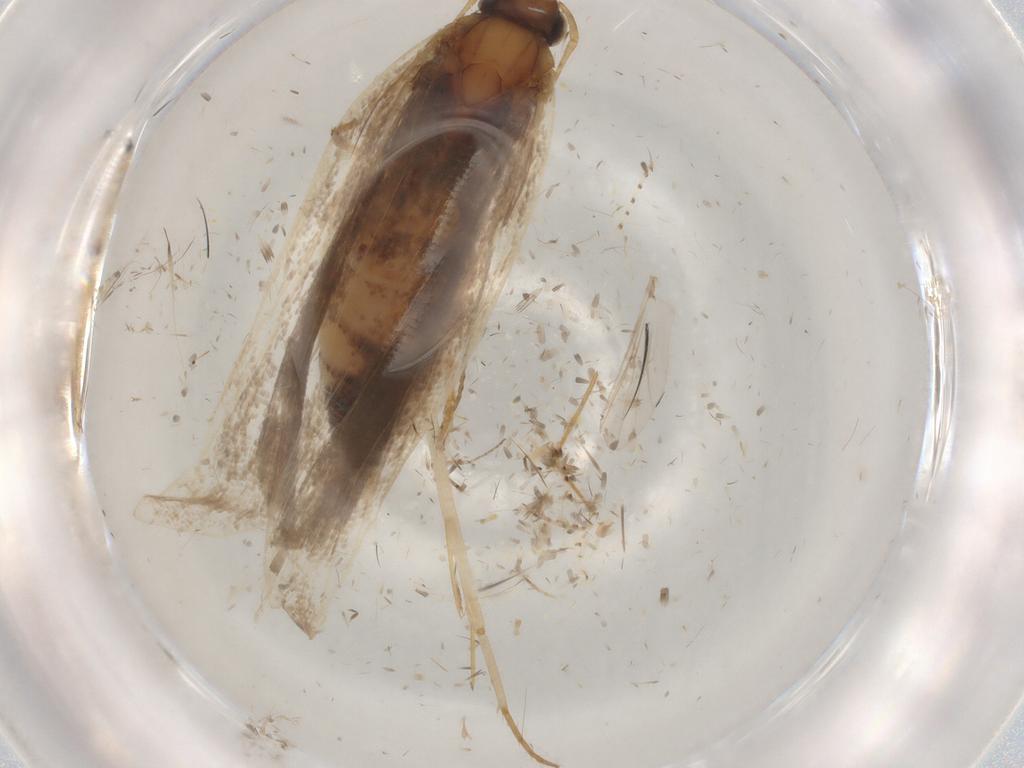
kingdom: Animalia
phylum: Arthropoda
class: Insecta
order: Lepidoptera
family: Gelechiidae
